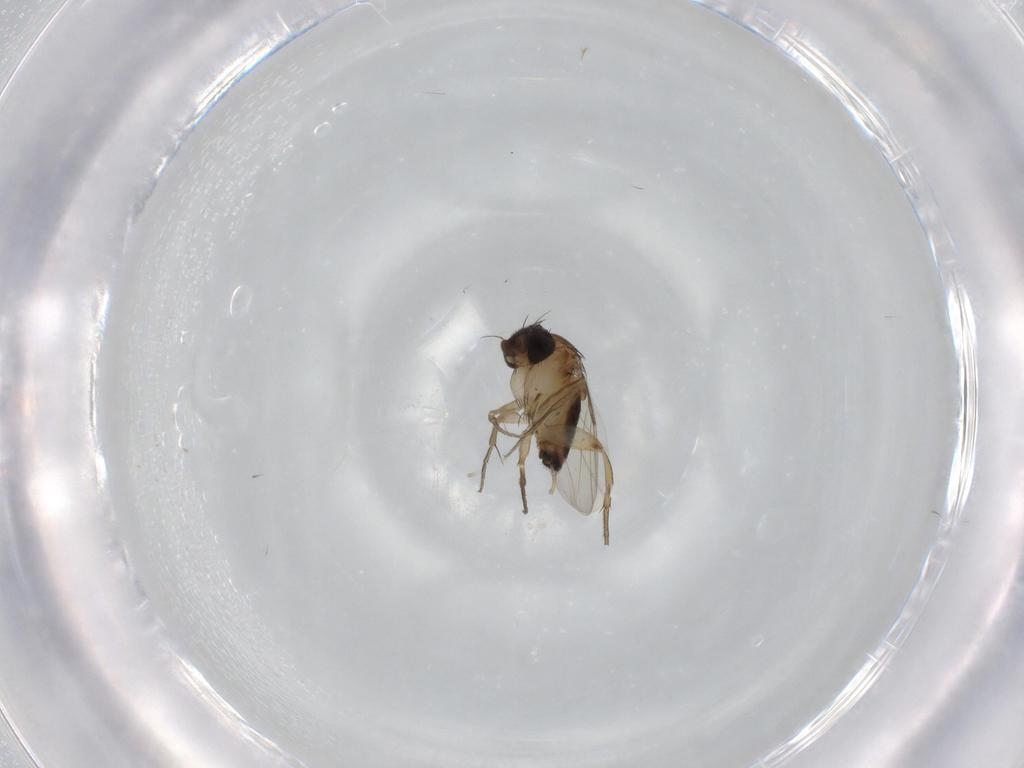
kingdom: Animalia
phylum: Arthropoda
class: Insecta
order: Diptera
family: Phoridae
